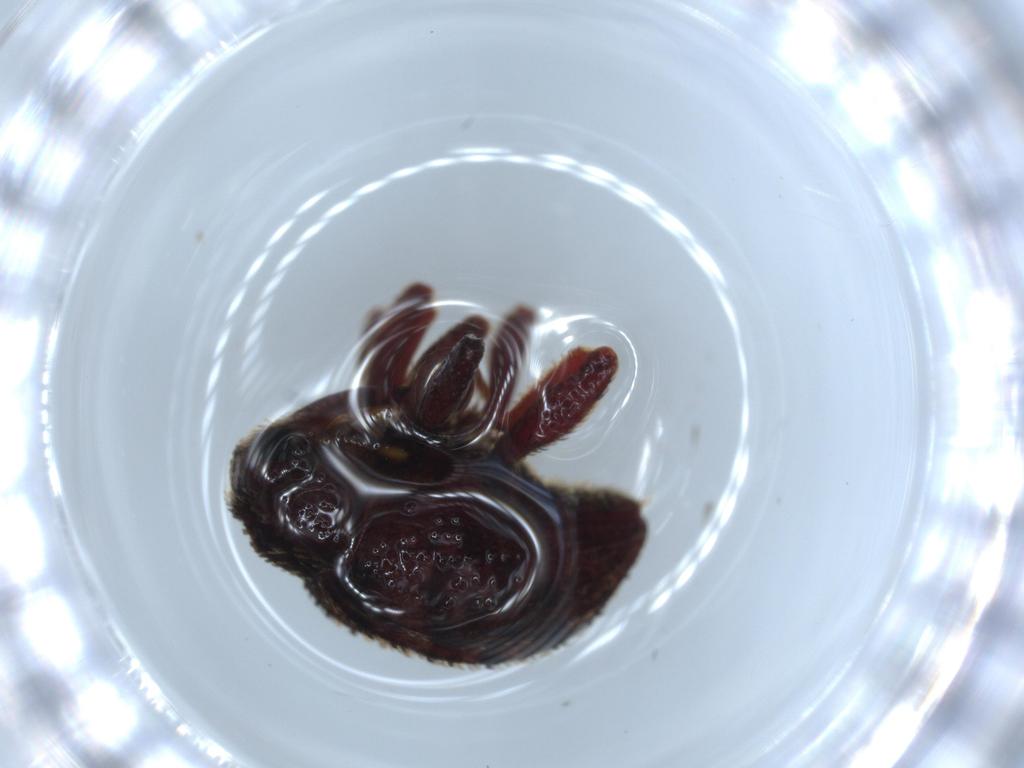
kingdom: Animalia
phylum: Arthropoda
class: Insecta
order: Coleoptera
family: Curculionidae
